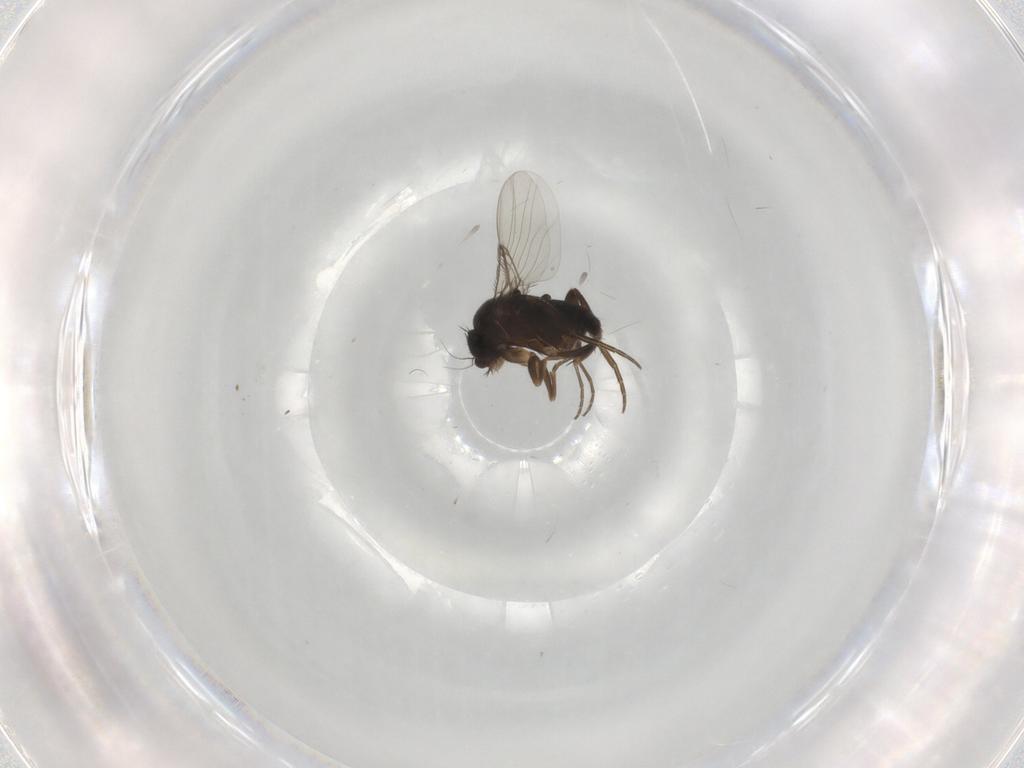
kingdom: Animalia
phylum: Arthropoda
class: Insecta
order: Diptera
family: Phoridae
